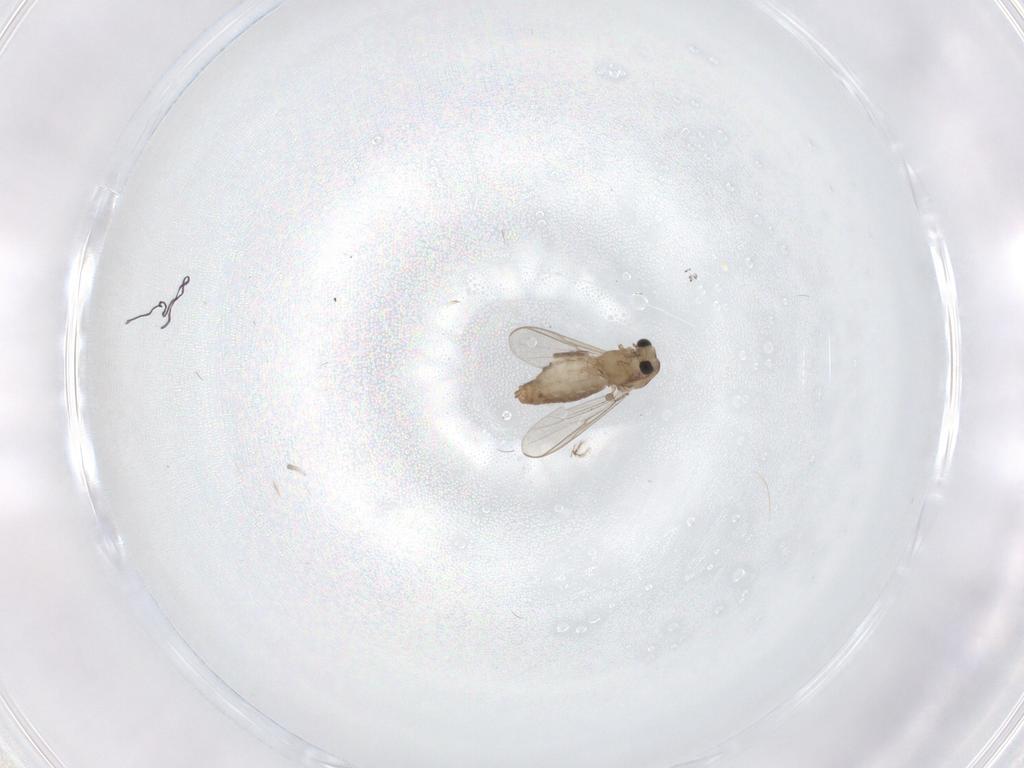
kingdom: Animalia
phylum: Arthropoda
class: Insecta
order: Diptera
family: Chironomidae
